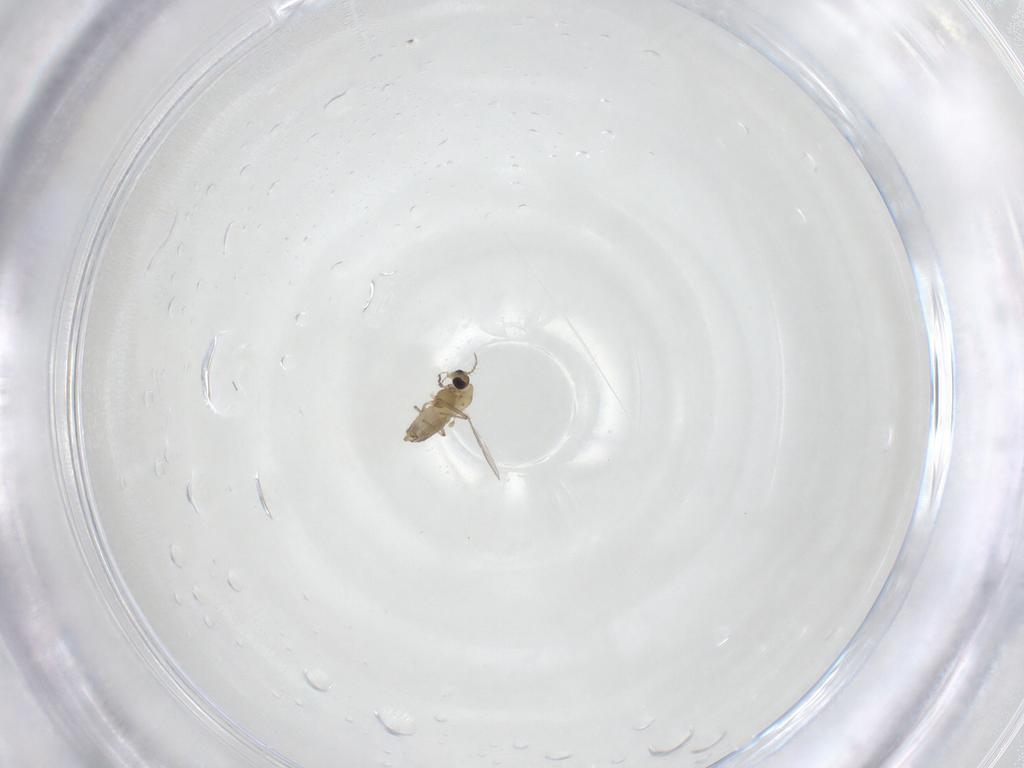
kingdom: Animalia
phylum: Arthropoda
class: Insecta
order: Diptera
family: Chironomidae
